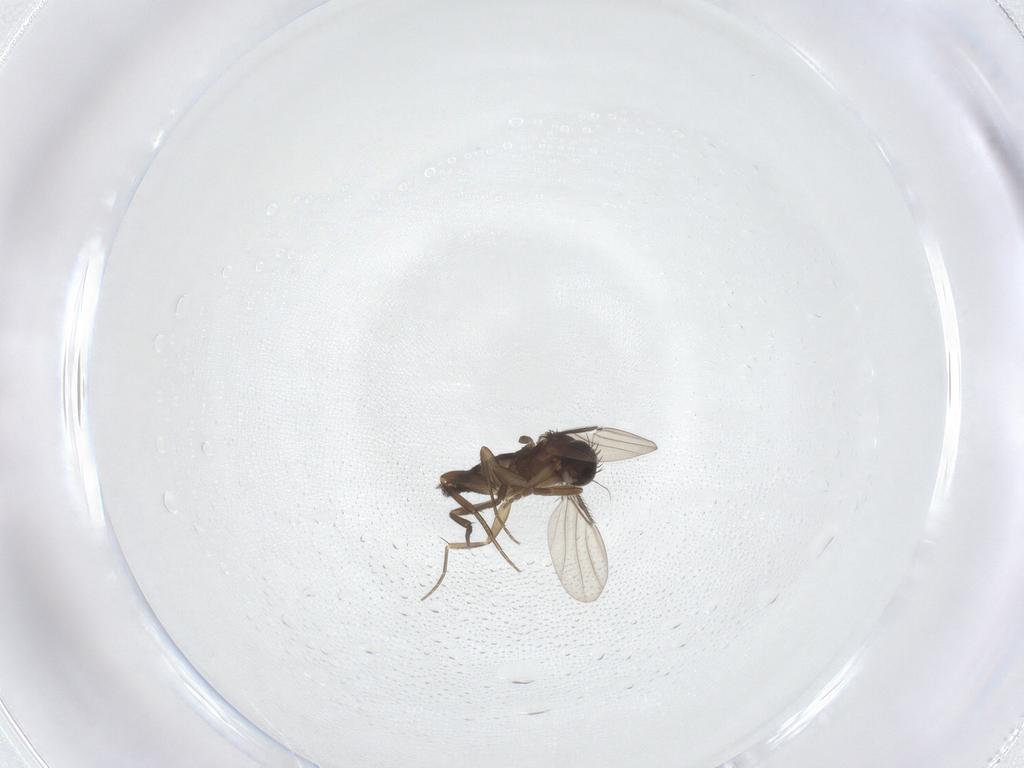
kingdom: Animalia
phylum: Arthropoda
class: Insecta
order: Diptera
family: Phoridae
